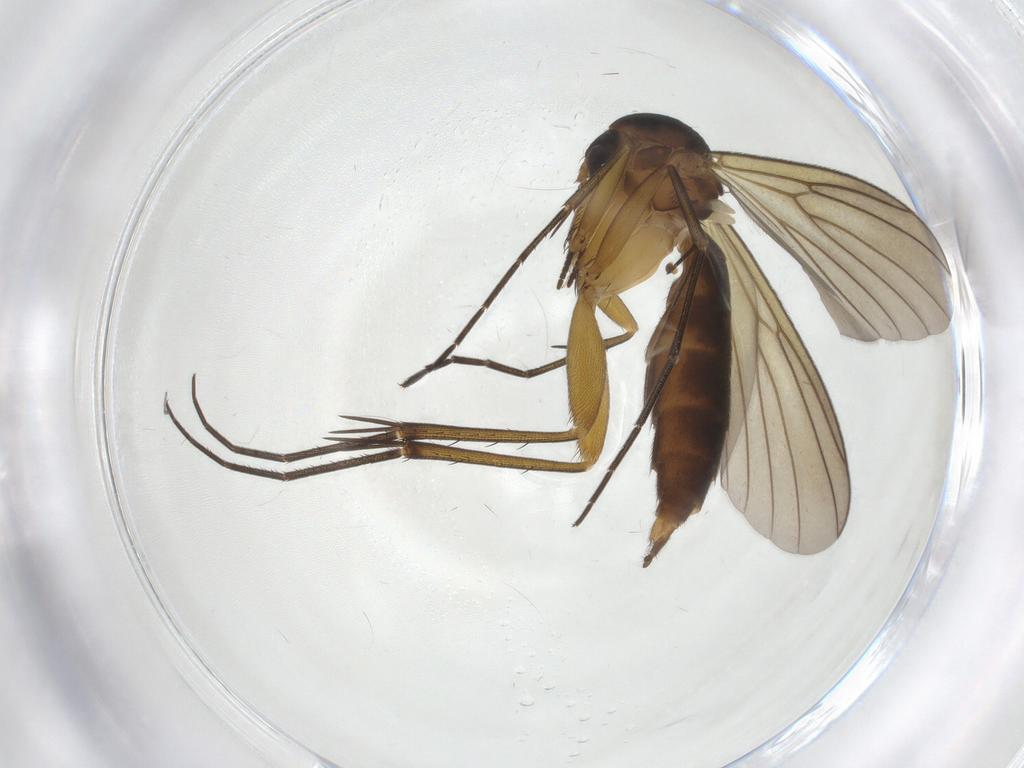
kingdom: Animalia
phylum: Arthropoda
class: Insecta
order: Diptera
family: Chironomidae
